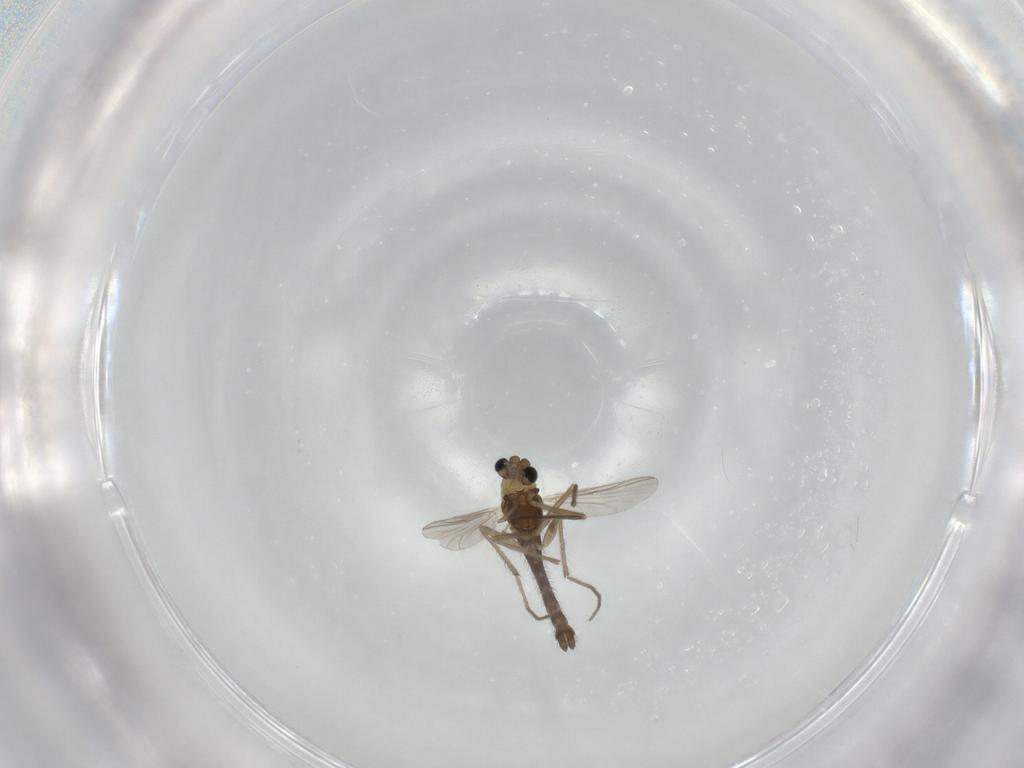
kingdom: Animalia
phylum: Arthropoda
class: Insecta
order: Diptera
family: Chironomidae
